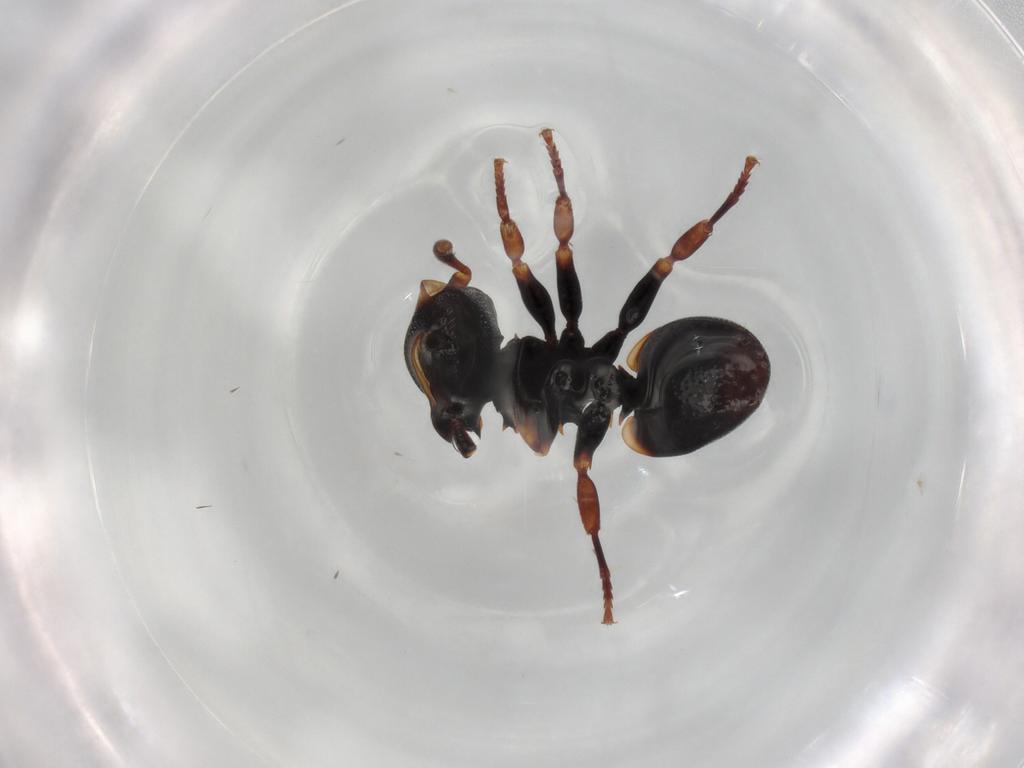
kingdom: Animalia
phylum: Arthropoda
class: Insecta
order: Hymenoptera
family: Formicidae
